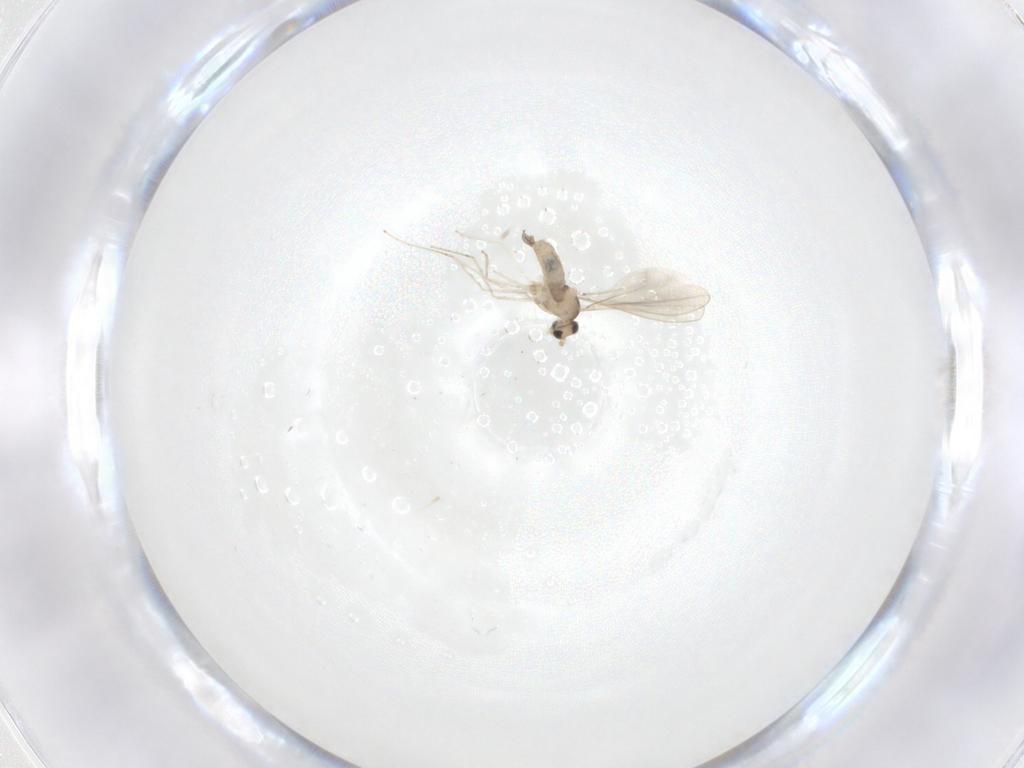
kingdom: Animalia
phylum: Arthropoda
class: Insecta
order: Diptera
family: Cecidomyiidae
